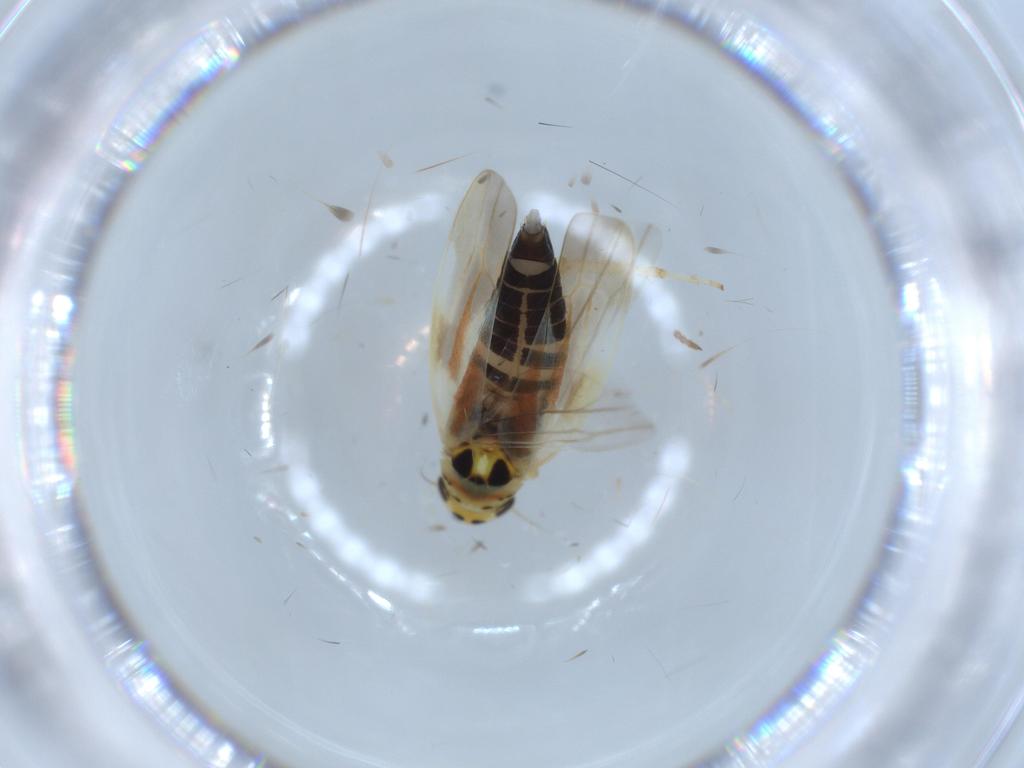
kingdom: Animalia
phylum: Arthropoda
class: Insecta
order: Hemiptera
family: Cicadellidae
